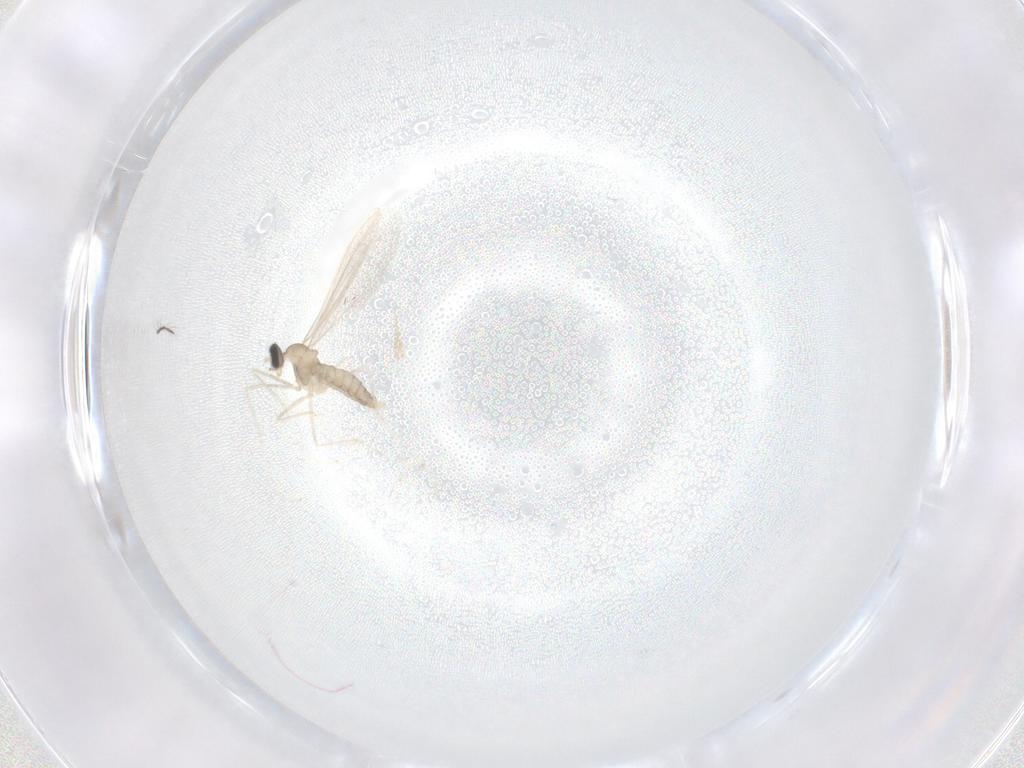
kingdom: Animalia
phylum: Arthropoda
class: Insecta
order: Diptera
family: Cecidomyiidae
